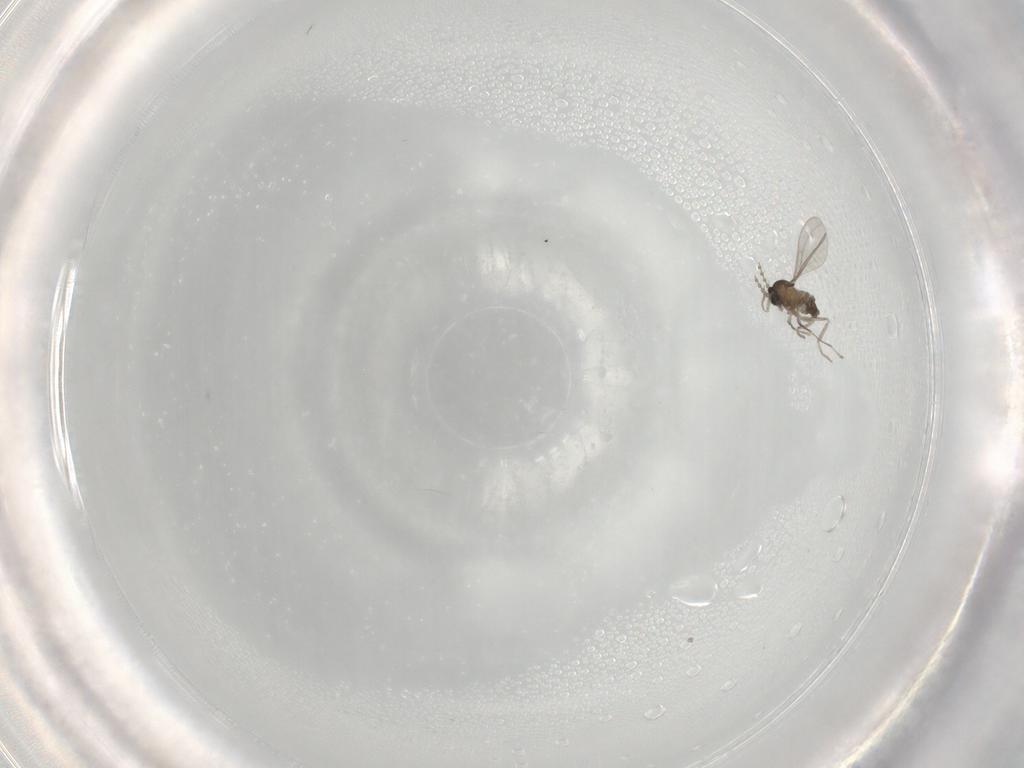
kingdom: Animalia
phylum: Arthropoda
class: Insecta
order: Diptera
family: Cecidomyiidae
